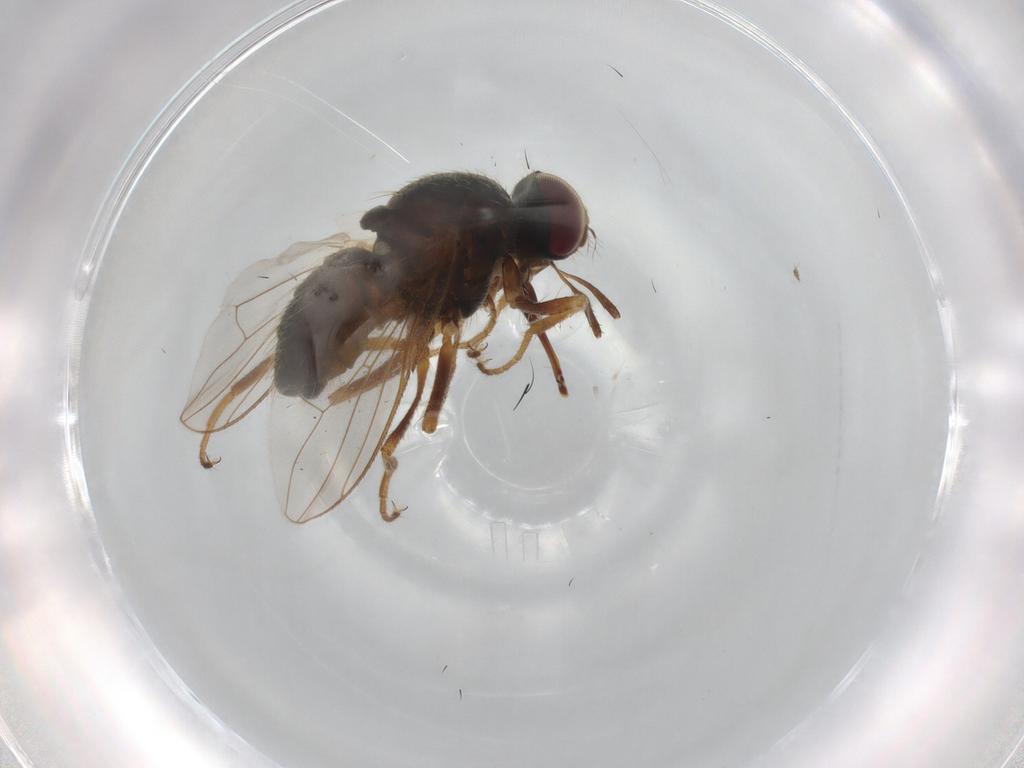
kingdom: Animalia
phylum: Arthropoda
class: Insecta
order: Diptera
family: Muscidae
